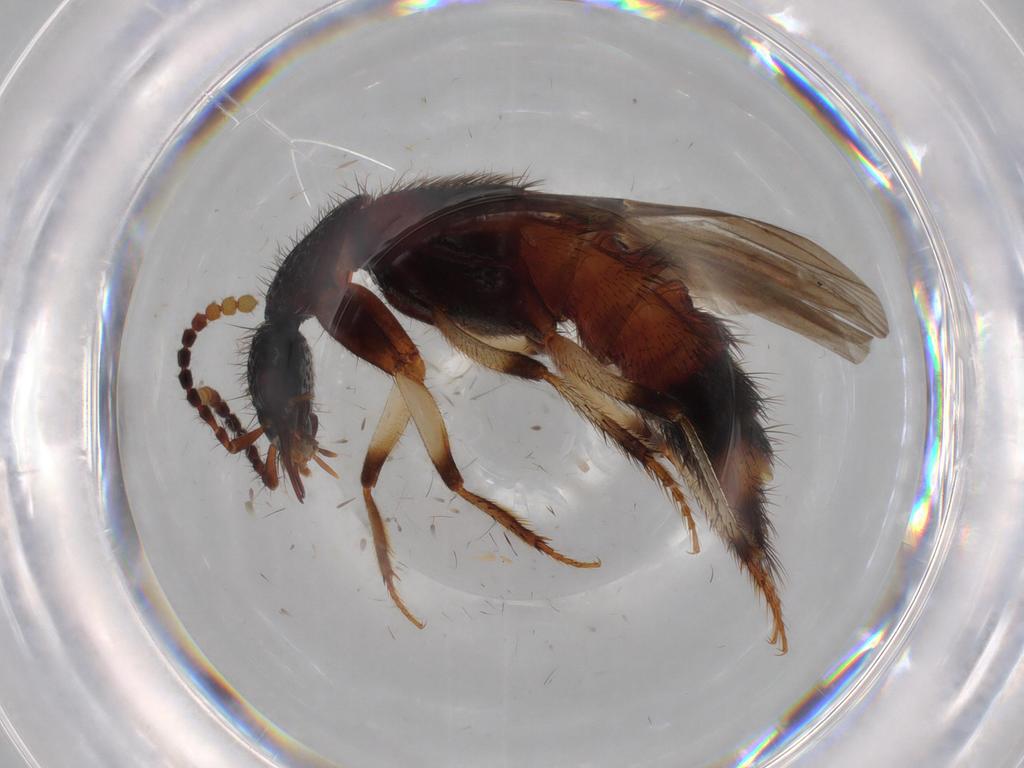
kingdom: Animalia
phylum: Arthropoda
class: Insecta
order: Coleoptera
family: Staphylinidae
